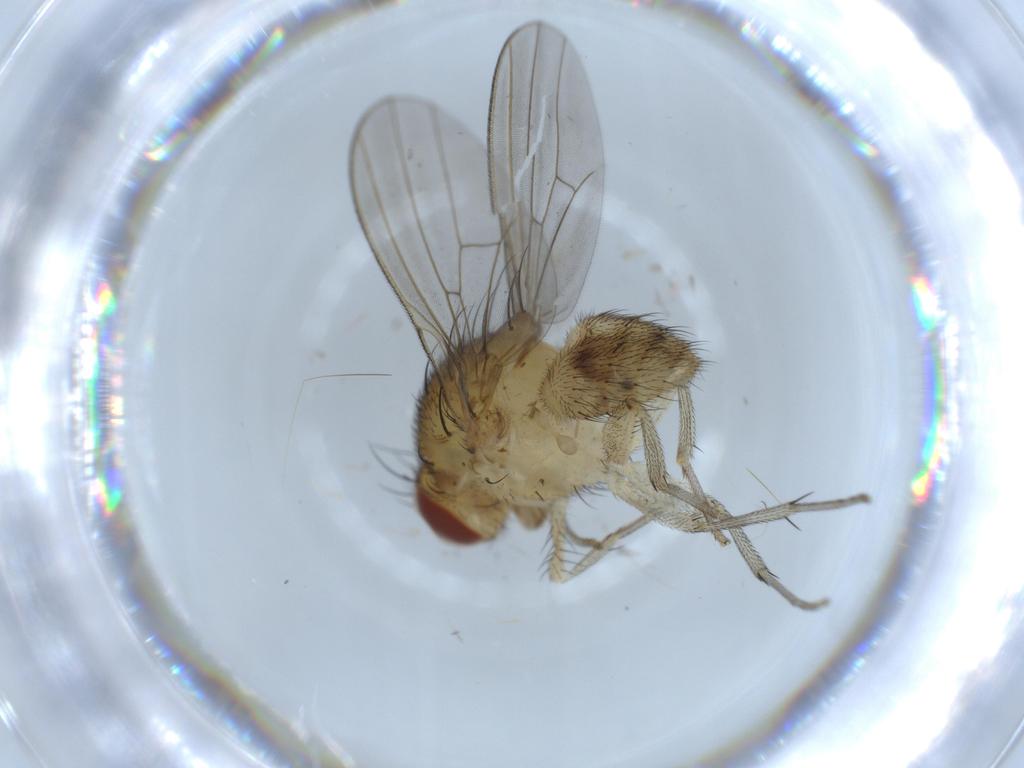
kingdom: Animalia
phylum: Arthropoda
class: Insecta
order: Diptera
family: Lauxaniidae
